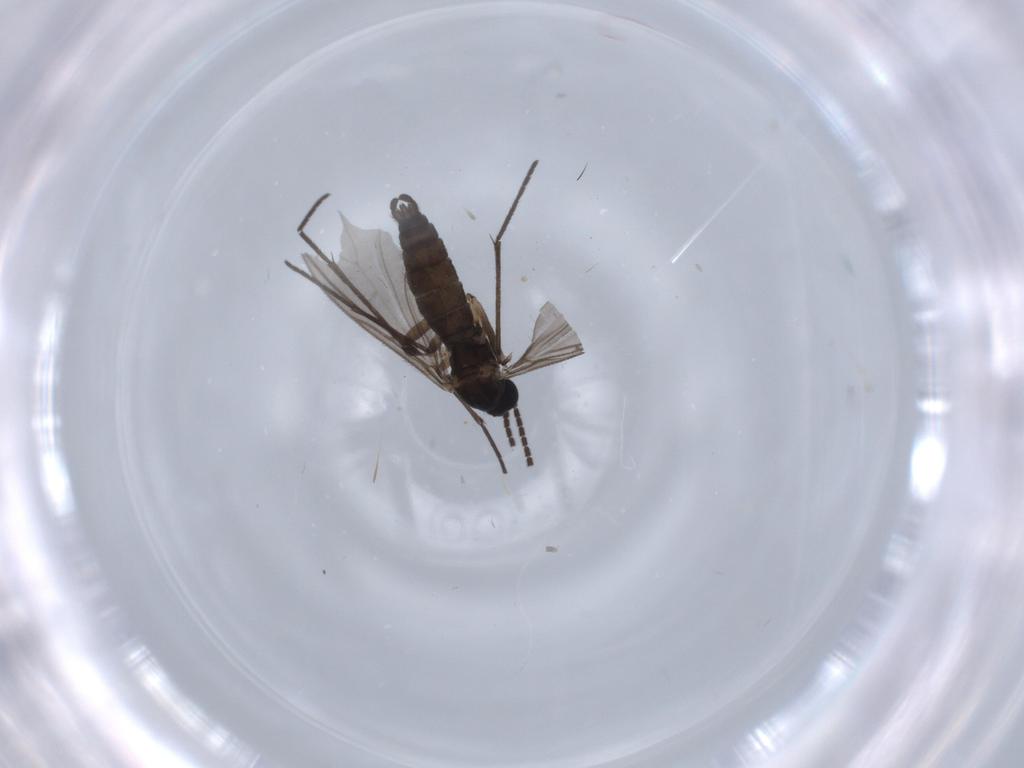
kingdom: Animalia
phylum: Arthropoda
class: Insecta
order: Diptera
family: Sciaridae
